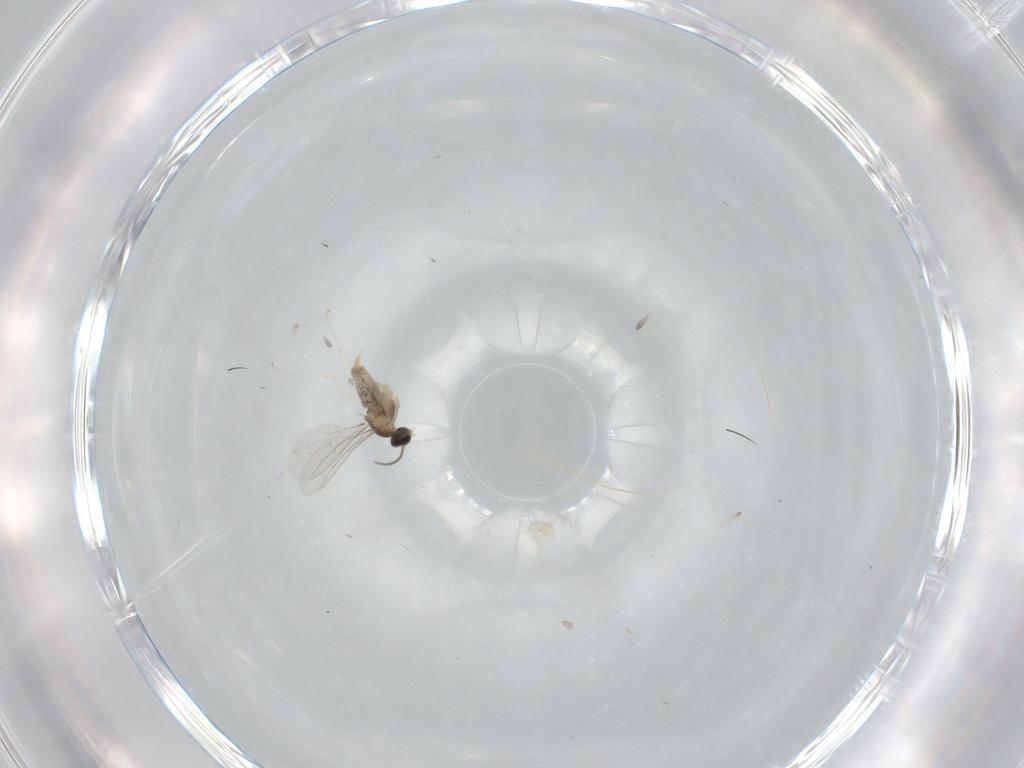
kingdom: Animalia
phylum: Arthropoda
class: Insecta
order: Diptera
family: Cecidomyiidae
